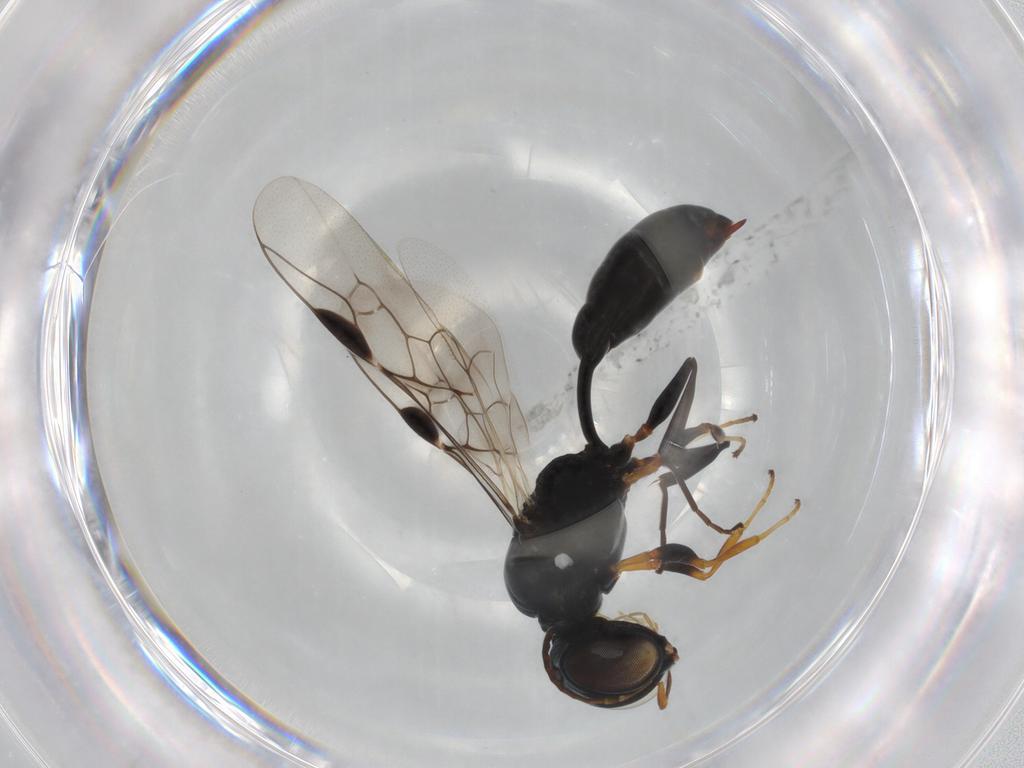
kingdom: Animalia
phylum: Arthropoda
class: Insecta
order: Hymenoptera
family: Pemphredonidae
